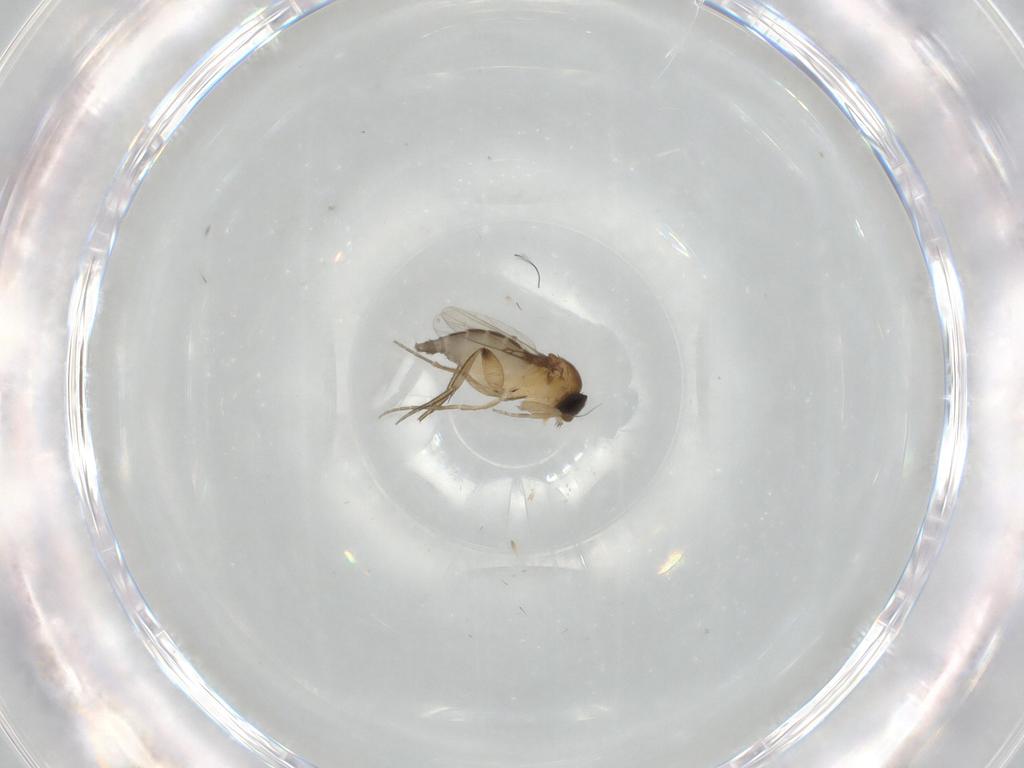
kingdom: Animalia
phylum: Arthropoda
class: Insecta
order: Diptera
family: Phoridae
